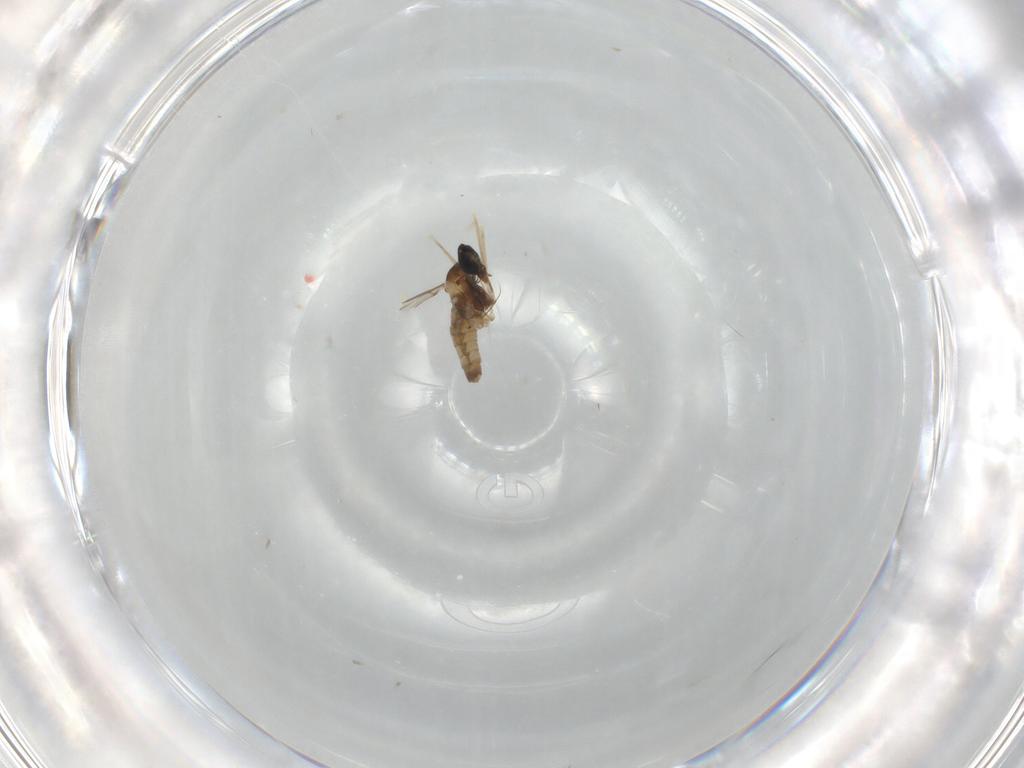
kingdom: Animalia
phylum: Arthropoda
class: Insecta
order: Diptera
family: Cecidomyiidae
